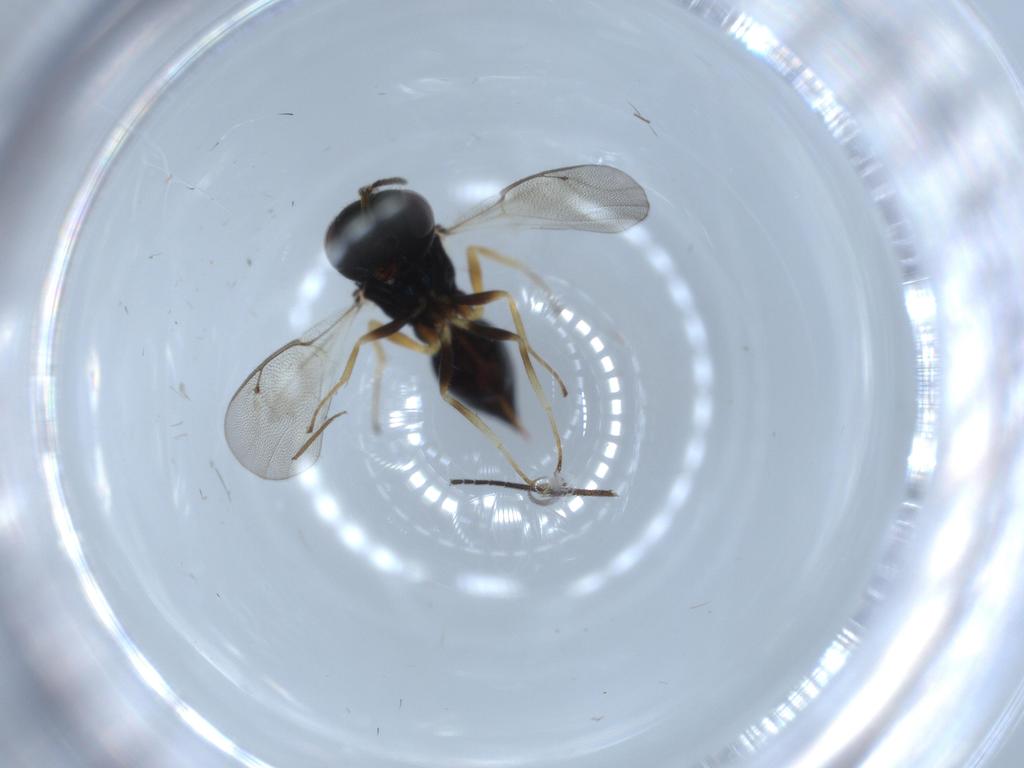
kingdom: Animalia
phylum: Arthropoda
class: Insecta
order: Hymenoptera
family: Pteromalidae
